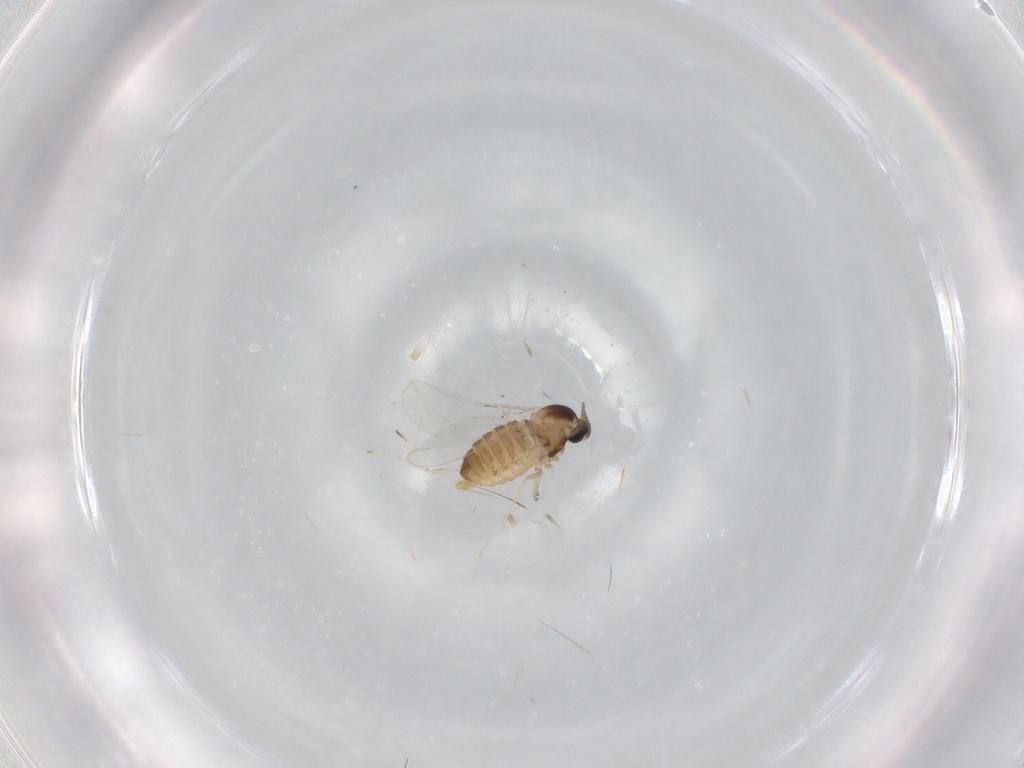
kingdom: Animalia
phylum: Arthropoda
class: Insecta
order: Diptera
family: Cecidomyiidae
